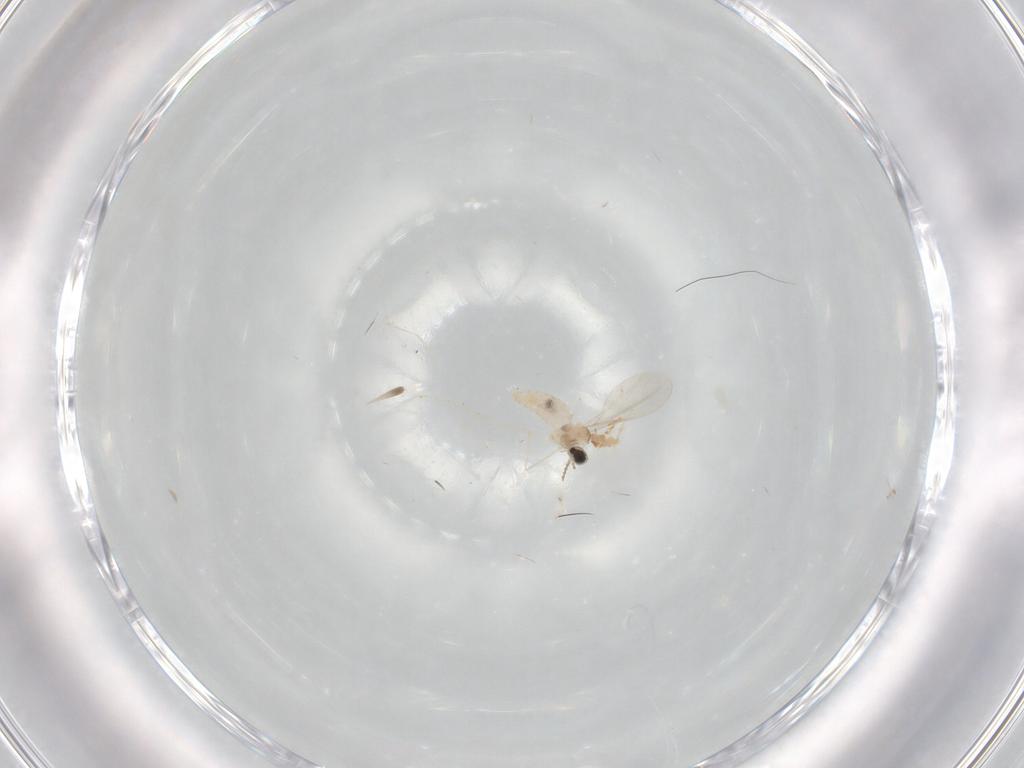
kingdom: Animalia
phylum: Arthropoda
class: Insecta
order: Diptera
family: Cecidomyiidae
